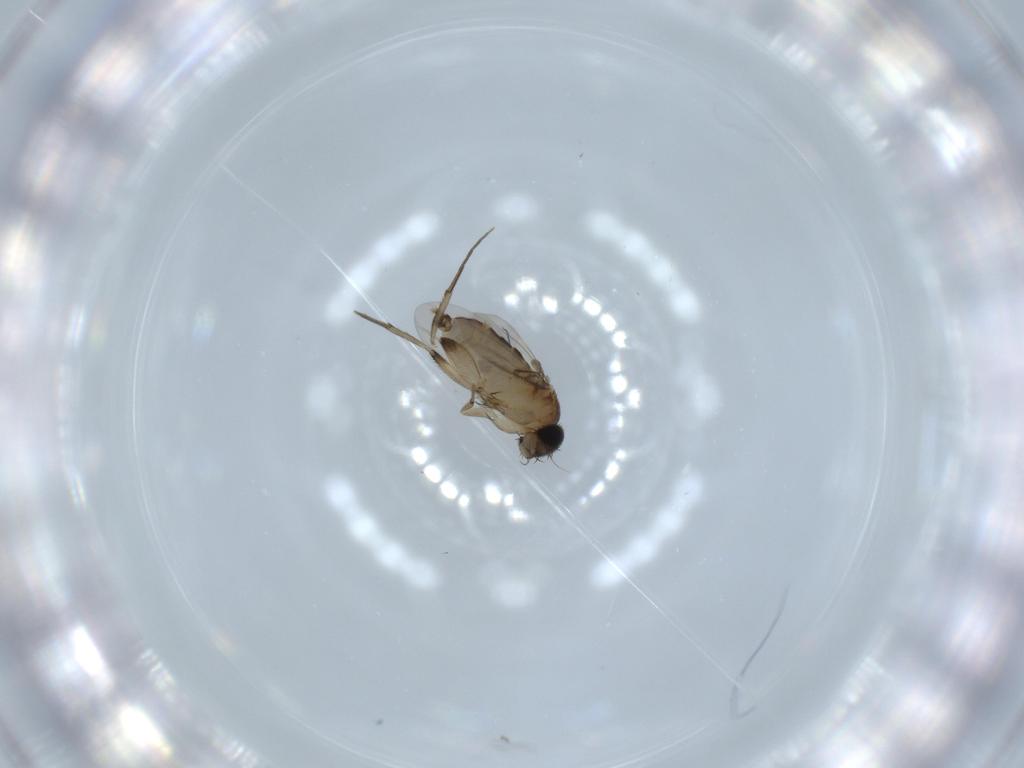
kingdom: Animalia
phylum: Arthropoda
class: Insecta
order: Diptera
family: Phoridae
